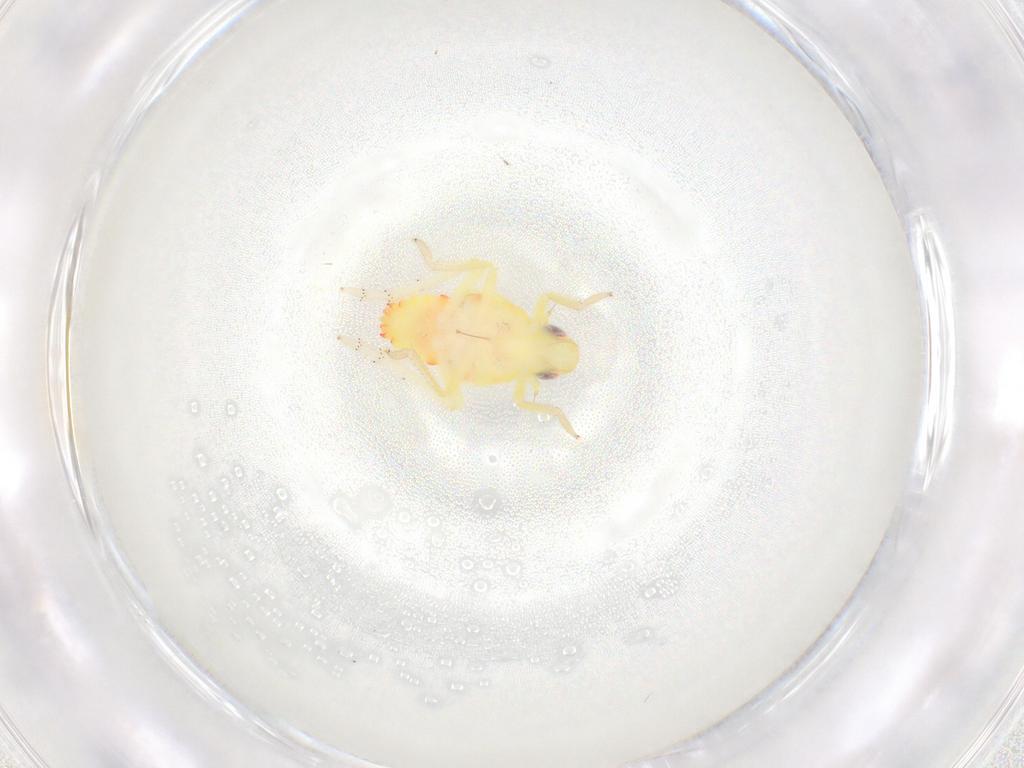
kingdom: Animalia
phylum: Arthropoda
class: Insecta
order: Hemiptera
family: Tropiduchidae
